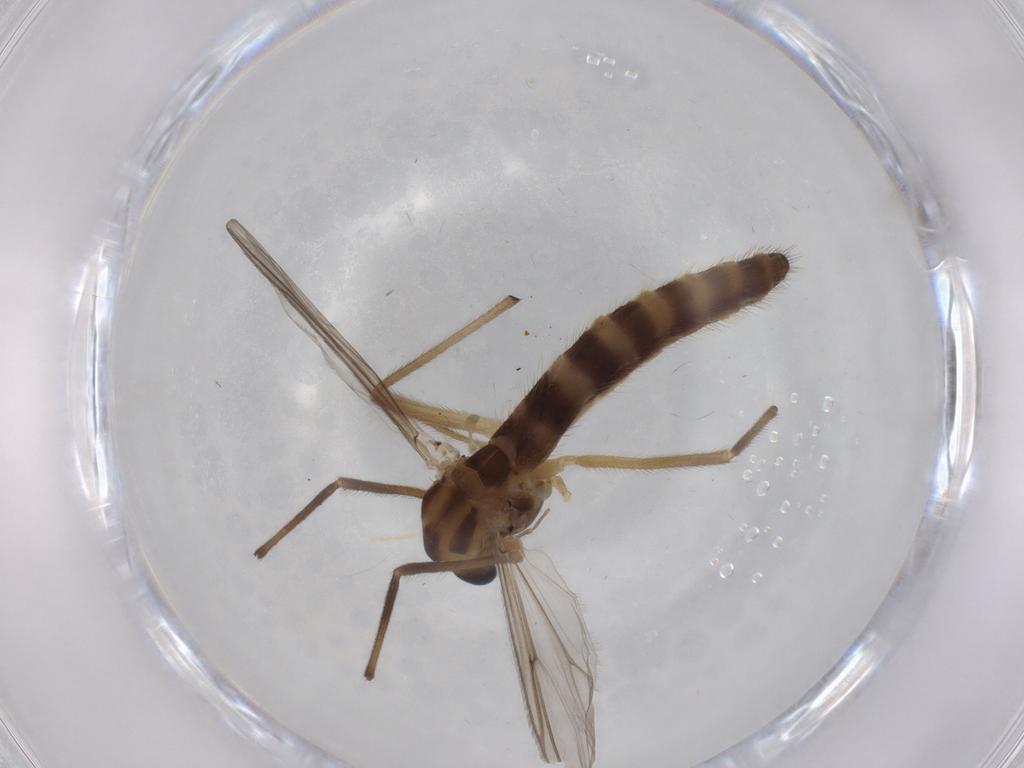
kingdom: Animalia
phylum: Arthropoda
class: Insecta
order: Diptera
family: Chironomidae
